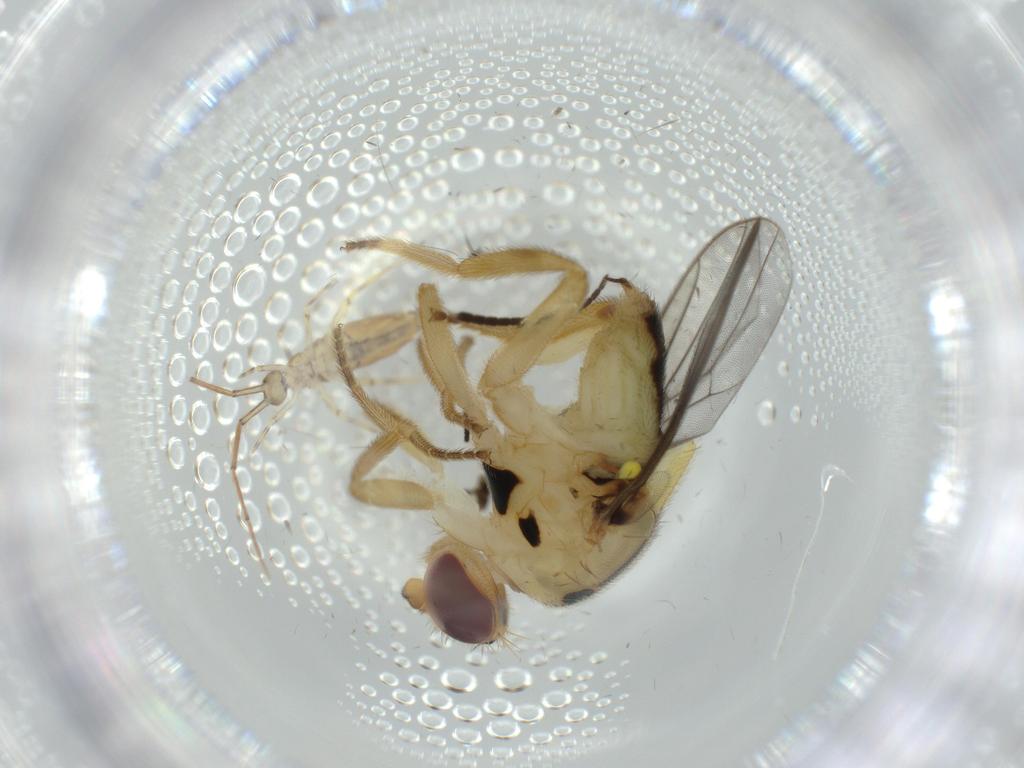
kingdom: Animalia
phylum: Arthropoda
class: Insecta
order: Diptera
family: Chloropidae
